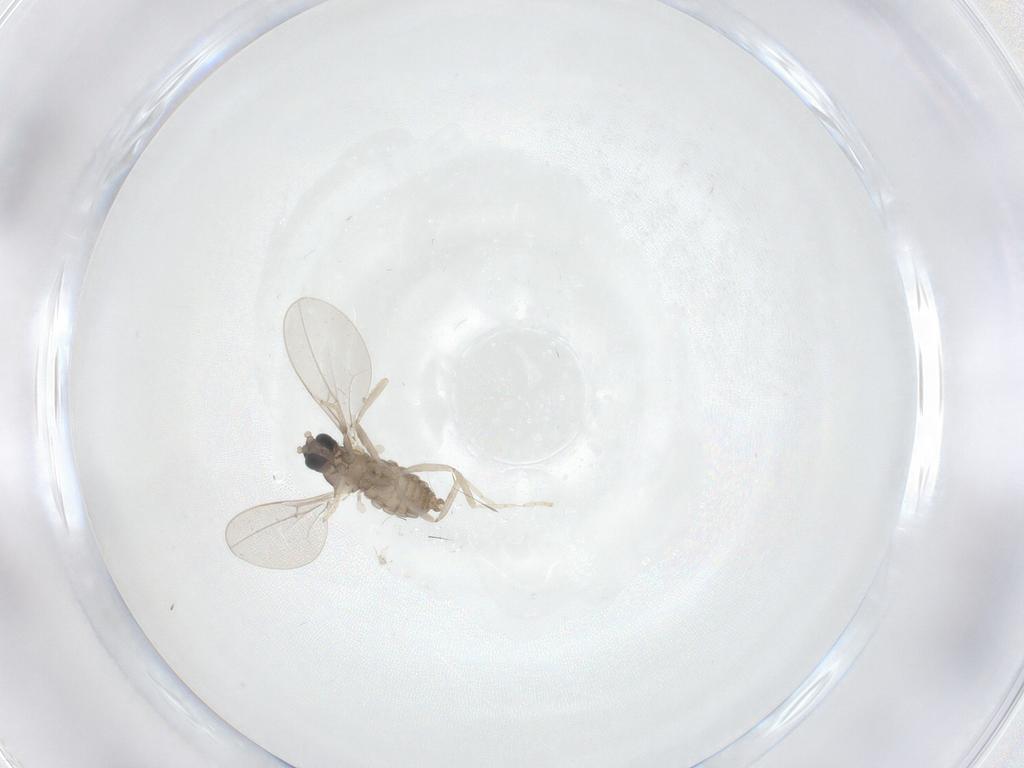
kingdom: Animalia
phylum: Arthropoda
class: Insecta
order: Diptera
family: Cecidomyiidae
